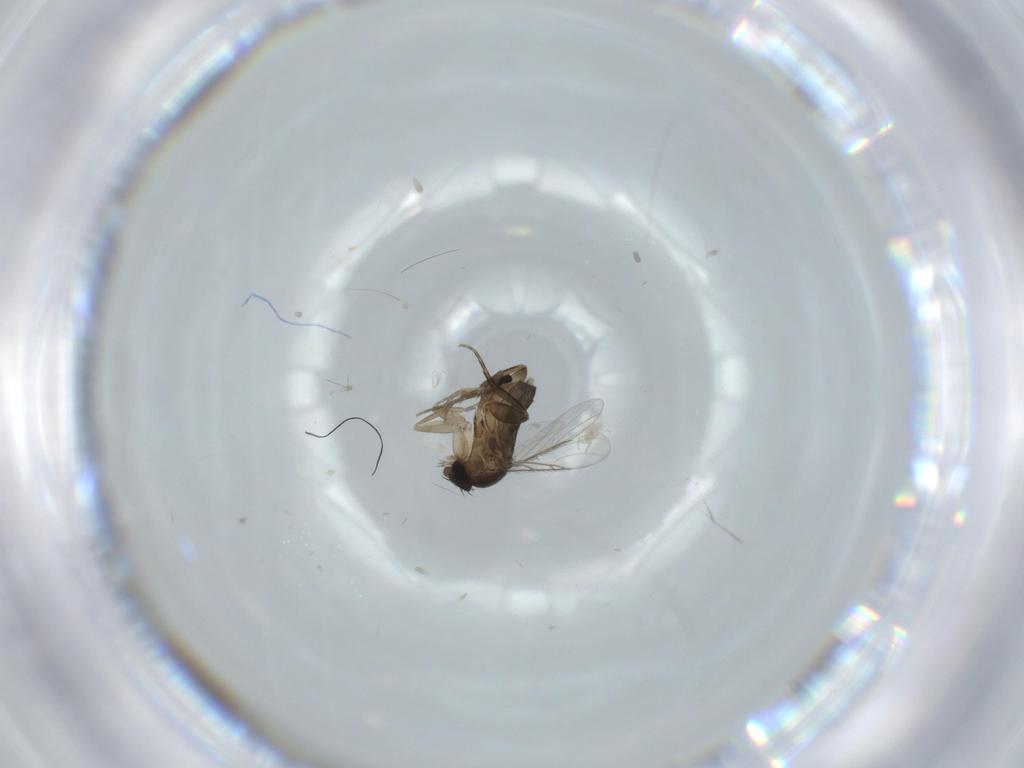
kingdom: Animalia
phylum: Arthropoda
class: Insecta
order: Diptera
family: Phoridae
